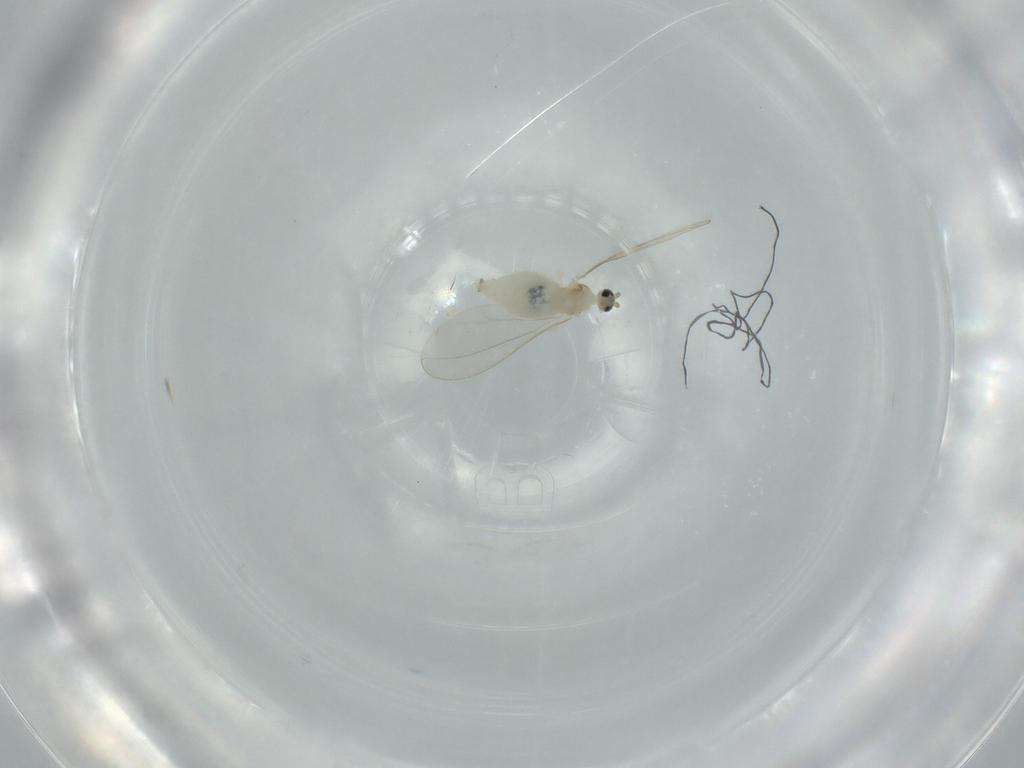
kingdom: Animalia
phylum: Arthropoda
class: Insecta
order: Diptera
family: Cecidomyiidae
